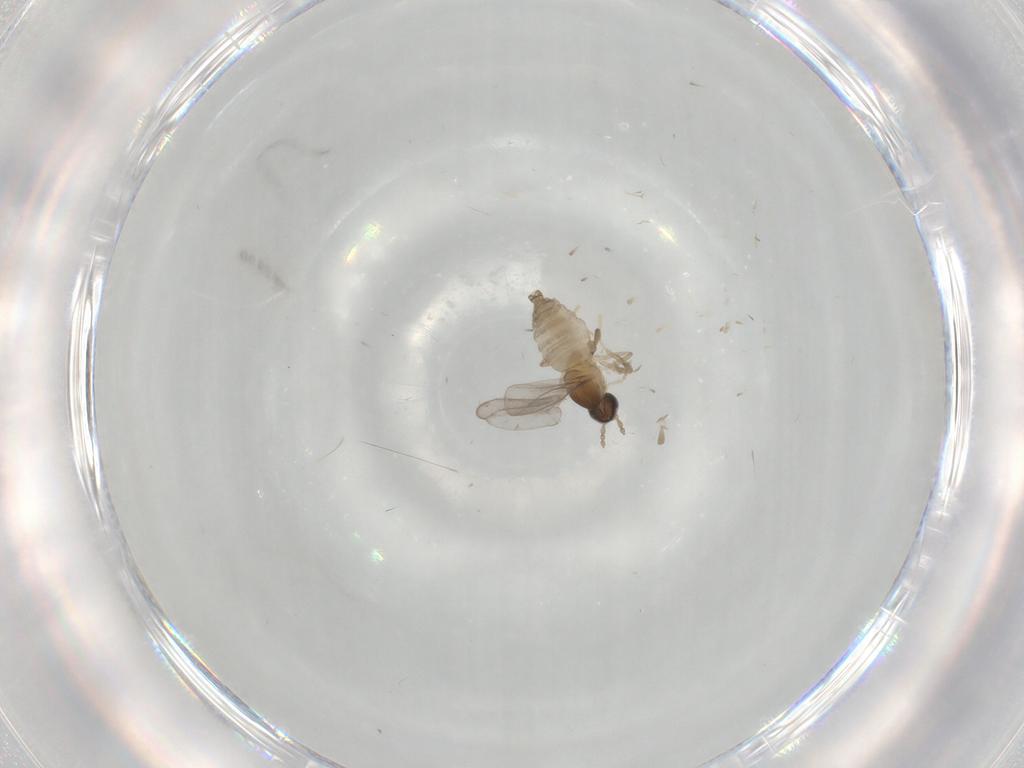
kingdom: Animalia
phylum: Arthropoda
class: Insecta
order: Diptera
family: Cecidomyiidae
